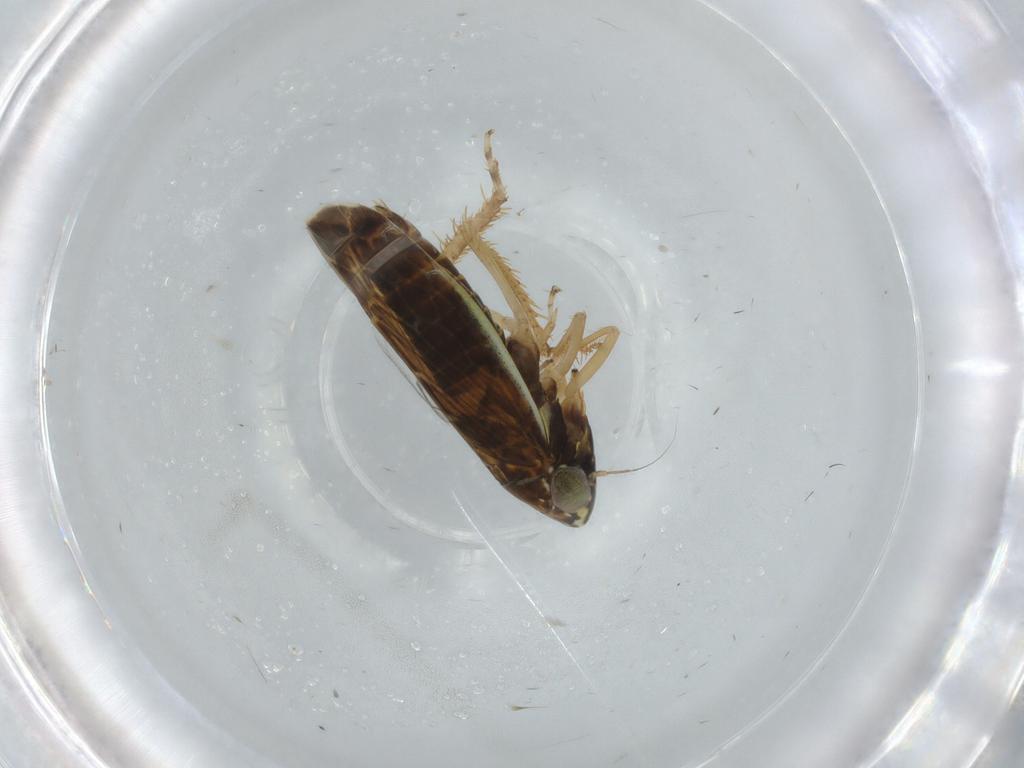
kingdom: Animalia
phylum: Arthropoda
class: Insecta
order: Hemiptera
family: Cicadellidae
